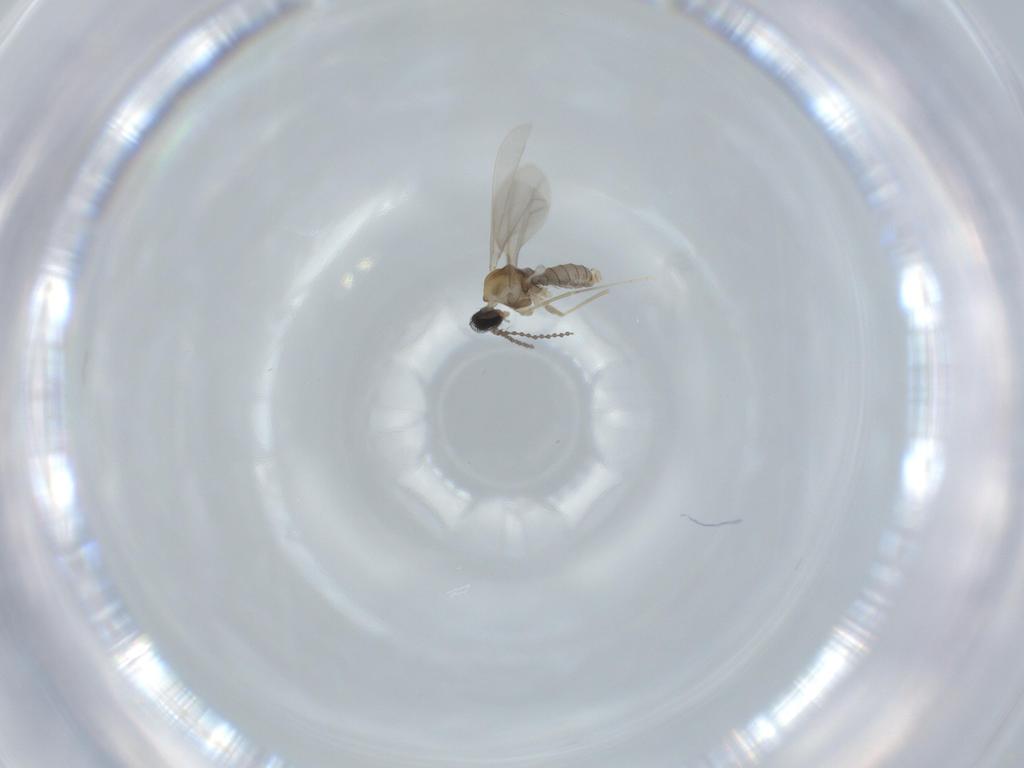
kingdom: Animalia
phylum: Arthropoda
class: Insecta
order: Diptera
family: Cecidomyiidae
